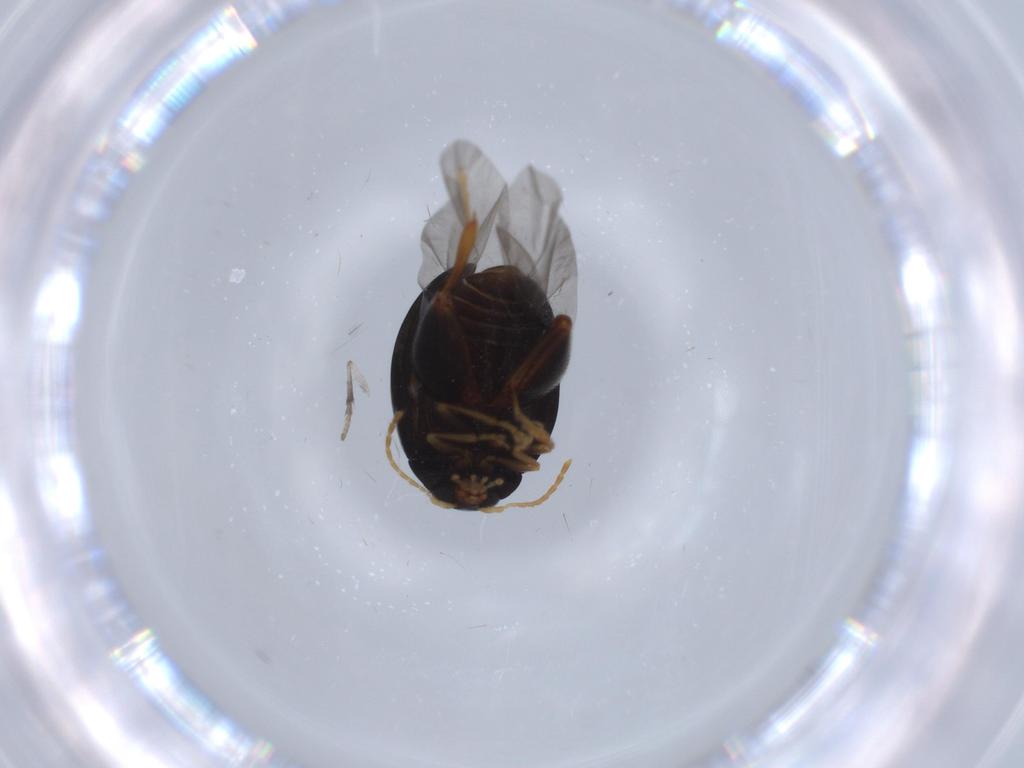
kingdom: Animalia
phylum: Arthropoda
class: Insecta
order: Coleoptera
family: Chrysomelidae
